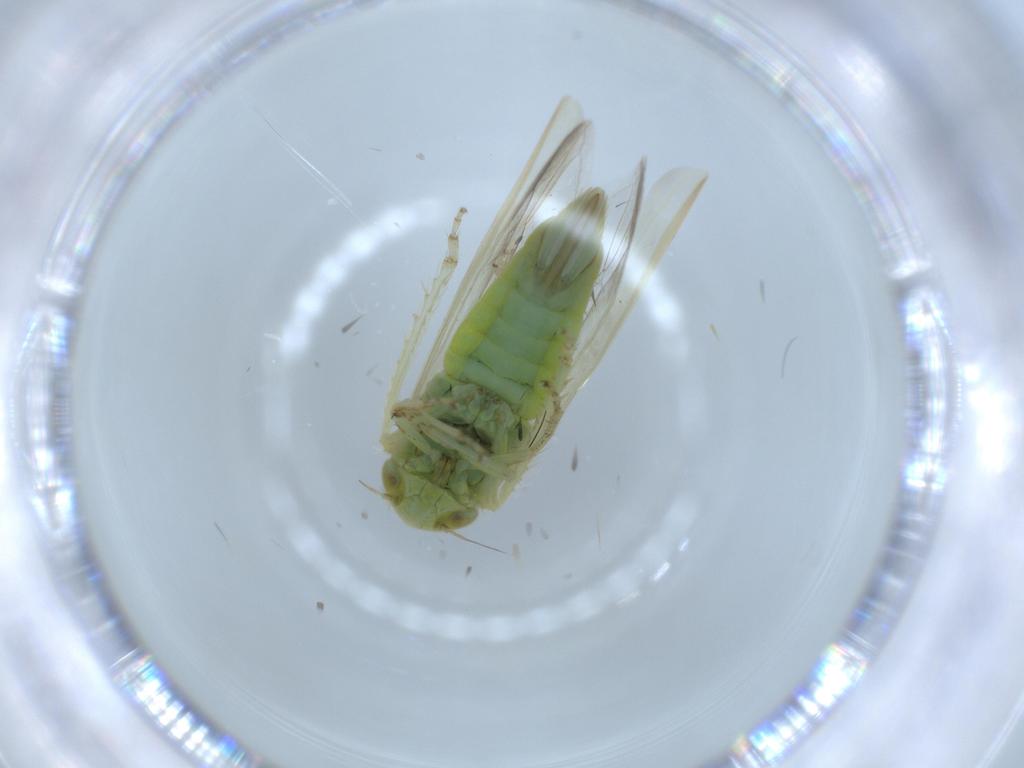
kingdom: Animalia
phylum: Arthropoda
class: Insecta
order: Hemiptera
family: Cicadellidae
